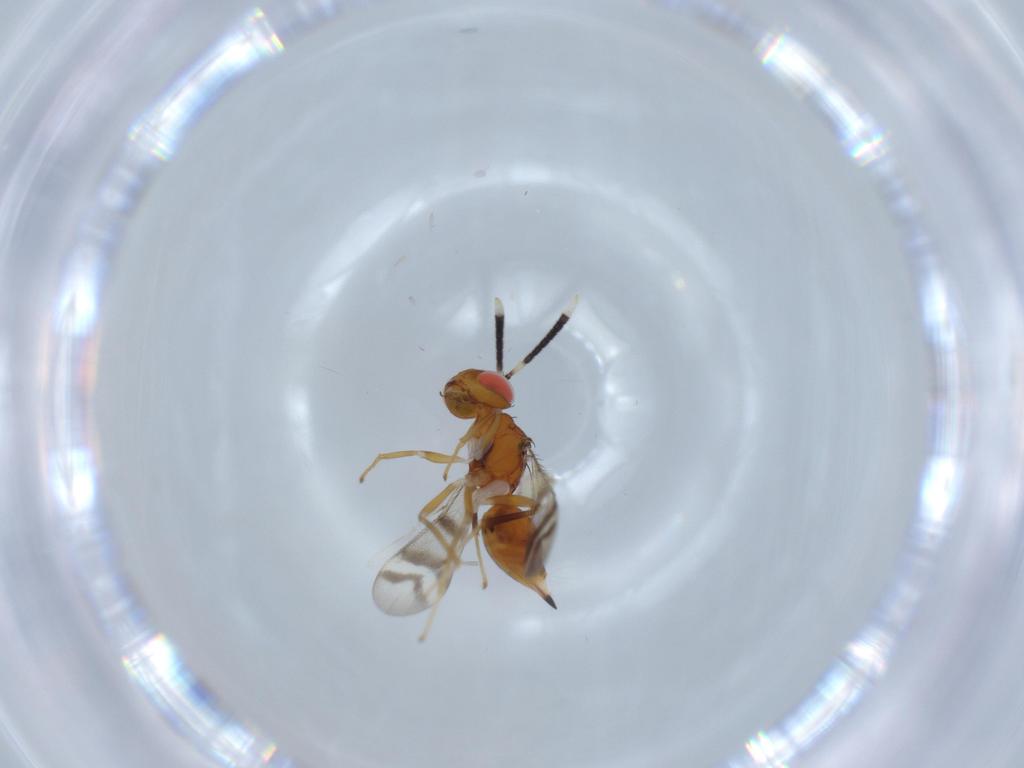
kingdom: Animalia
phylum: Arthropoda
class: Insecta
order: Hymenoptera
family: Diparidae
